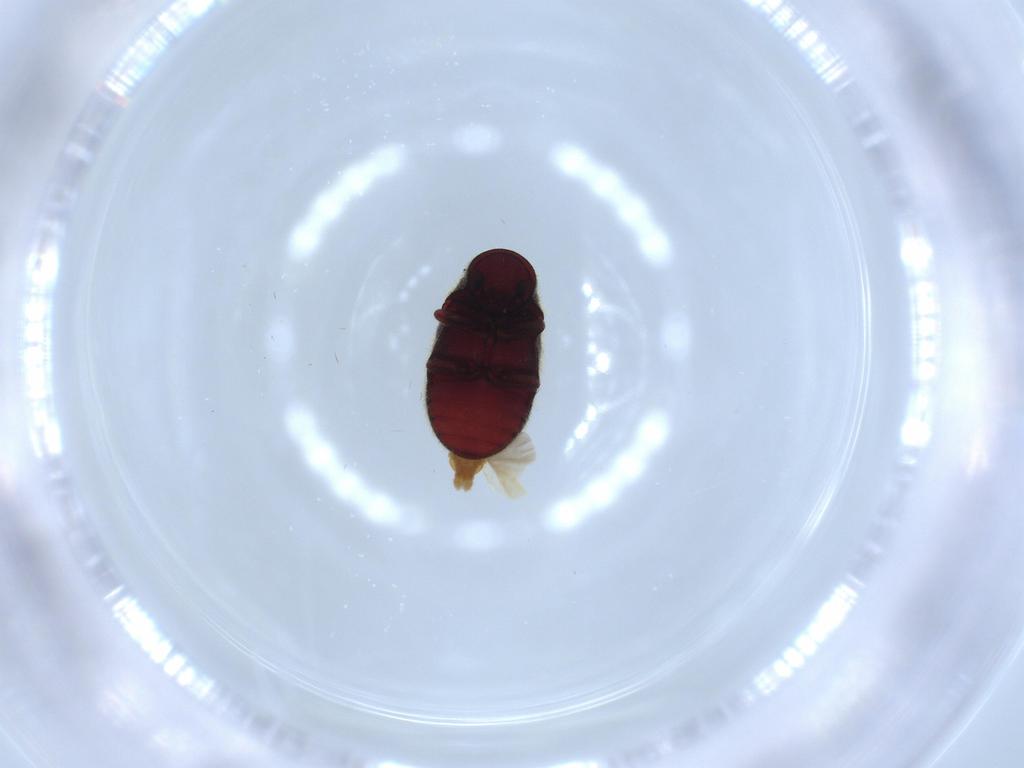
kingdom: Animalia
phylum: Arthropoda
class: Insecta
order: Coleoptera
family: Ptinidae
